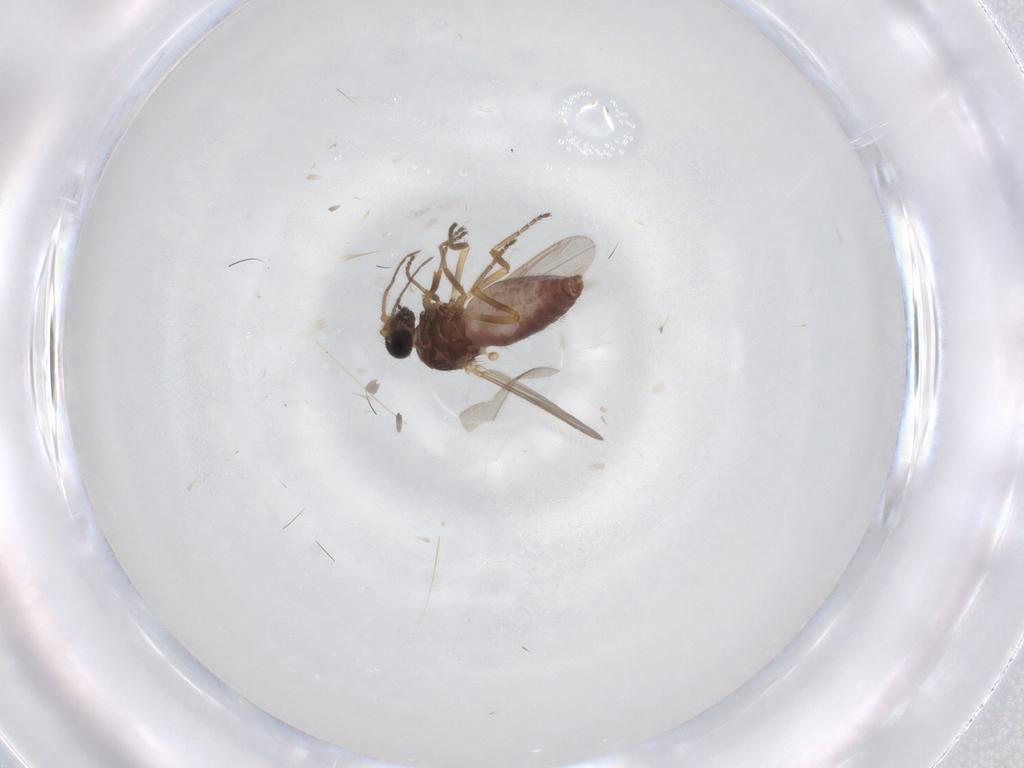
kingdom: Animalia
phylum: Arthropoda
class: Insecta
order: Diptera
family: Ceratopogonidae
